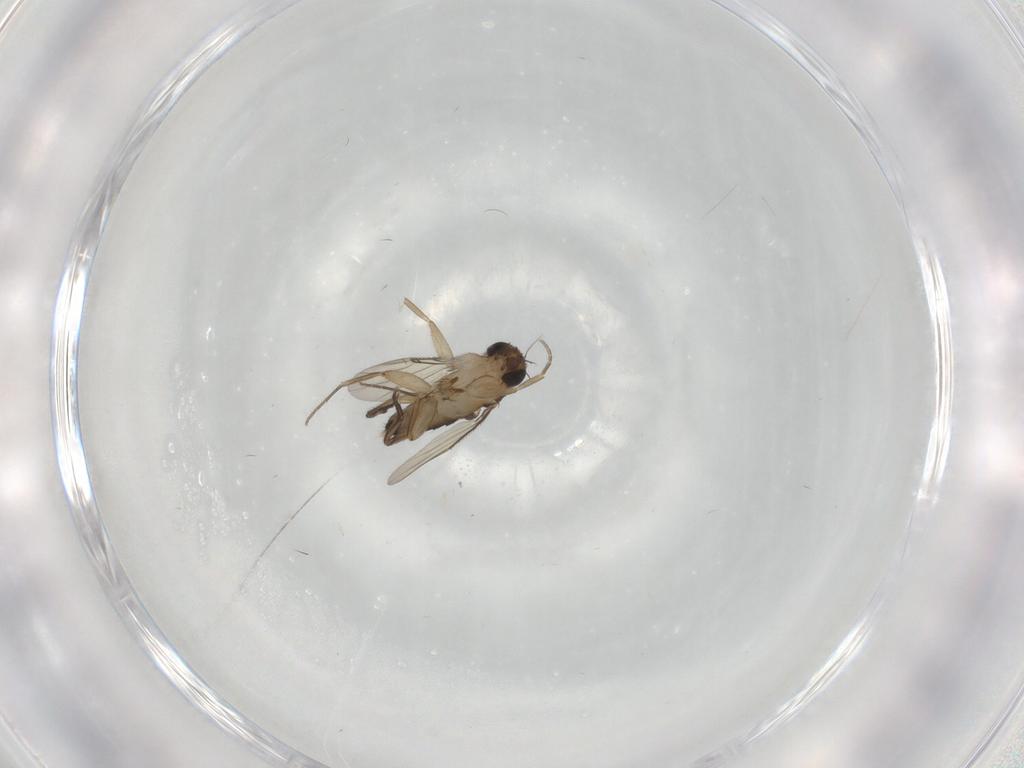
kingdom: Animalia
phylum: Arthropoda
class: Insecta
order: Diptera
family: Phoridae
